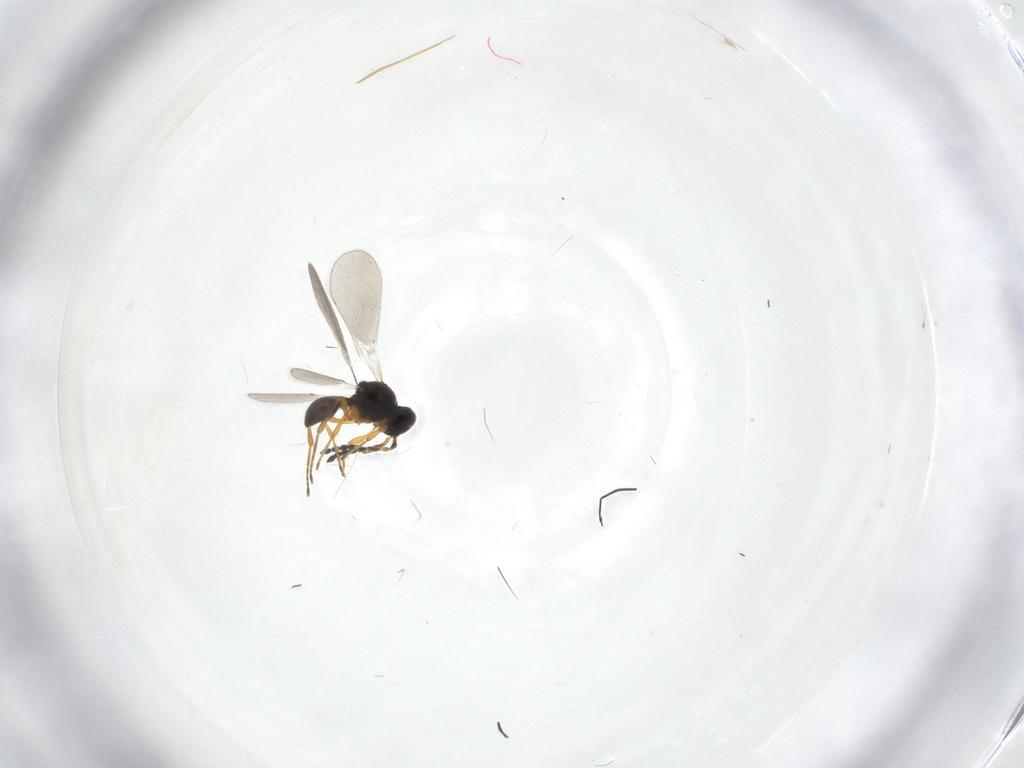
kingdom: Animalia
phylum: Arthropoda
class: Insecta
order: Hymenoptera
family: Platygastridae
